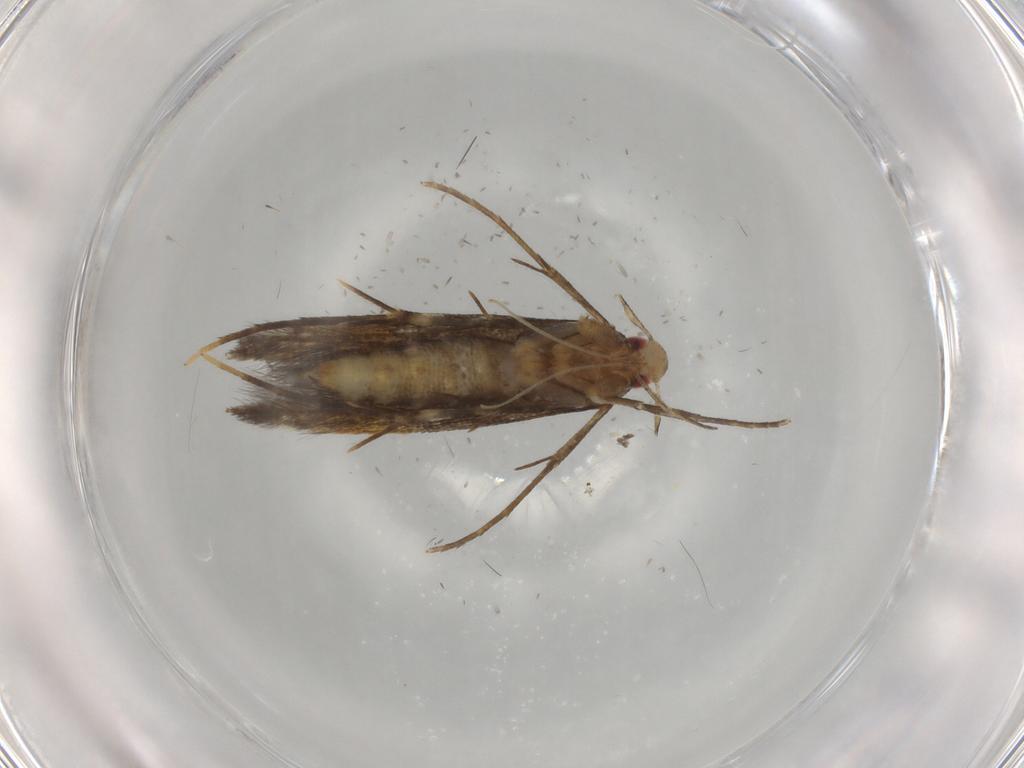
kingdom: Animalia
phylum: Arthropoda
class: Insecta
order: Lepidoptera
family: Cosmopterigidae
